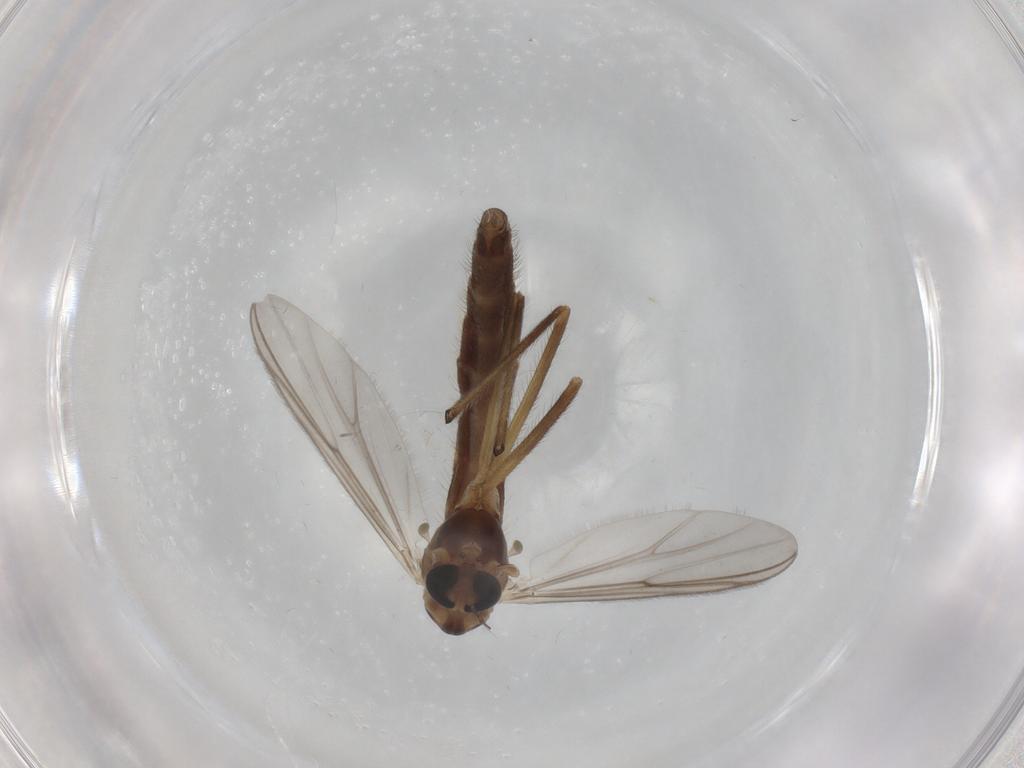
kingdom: Animalia
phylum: Arthropoda
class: Insecta
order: Diptera
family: Chironomidae
